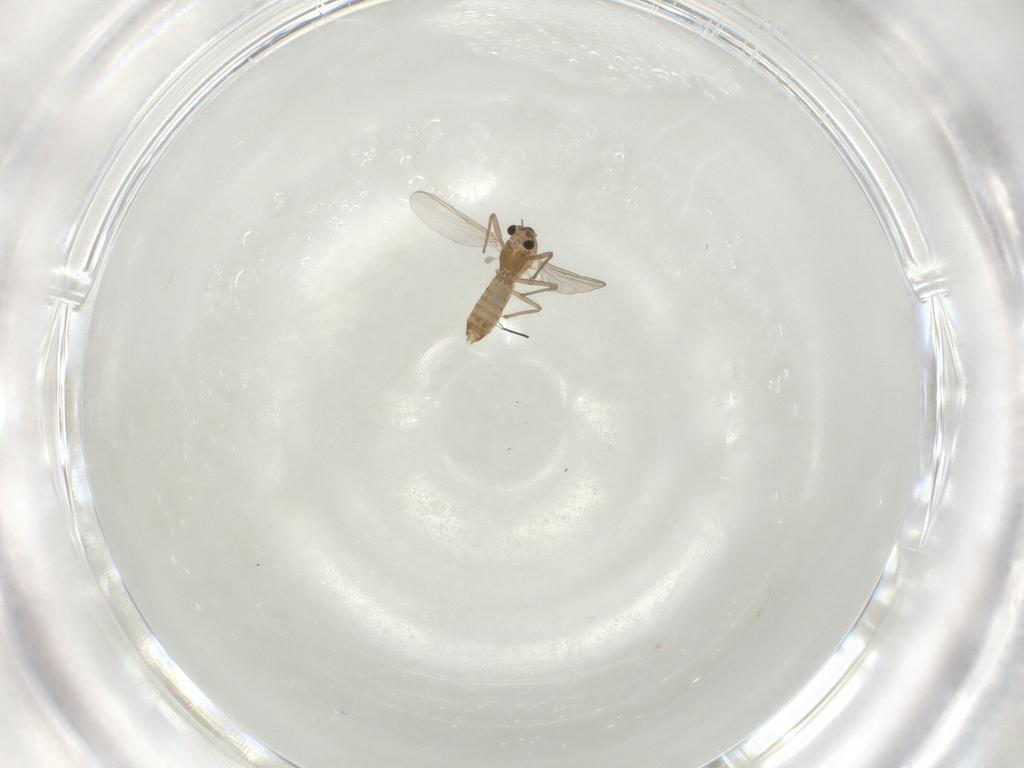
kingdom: Animalia
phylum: Arthropoda
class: Insecta
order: Diptera
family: Chironomidae
